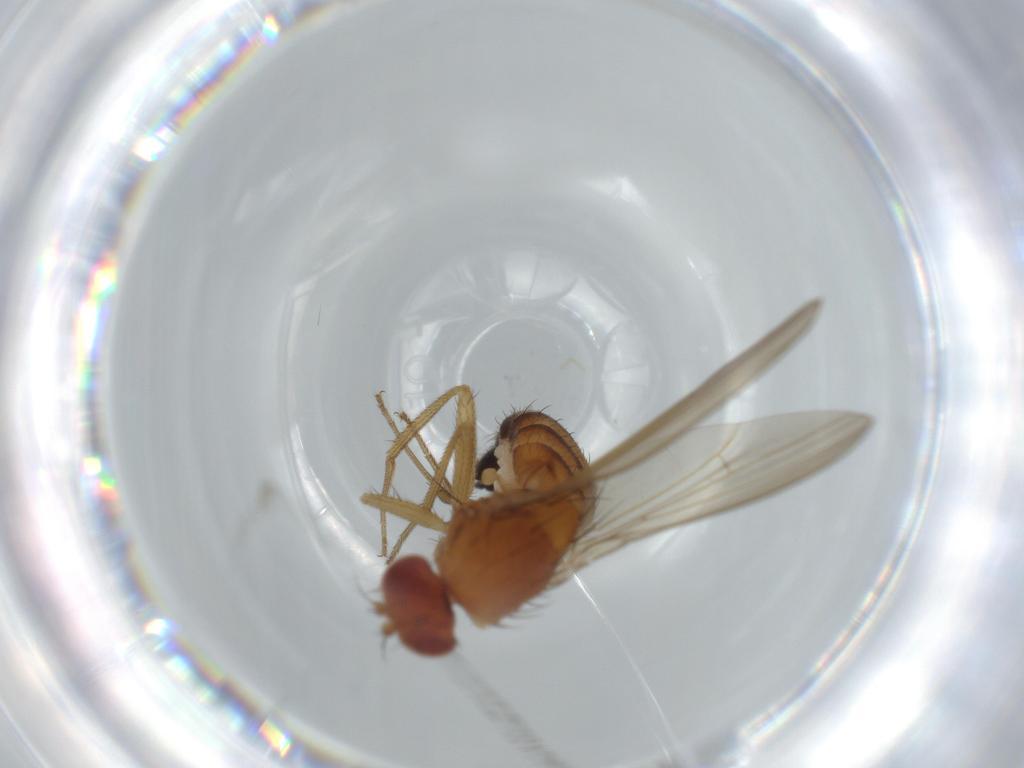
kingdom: Animalia
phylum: Arthropoda
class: Insecta
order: Diptera
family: Drosophilidae
